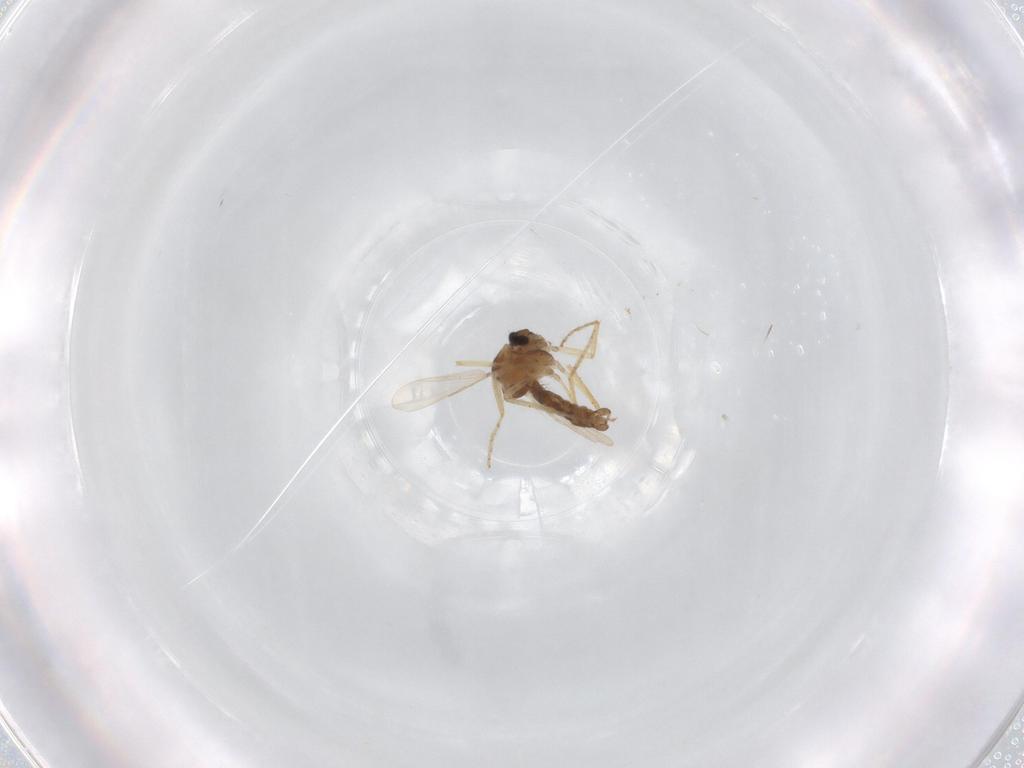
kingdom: Animalia
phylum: Arthropoda
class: Insecta
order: Diptera
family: Ceratopogonidae
